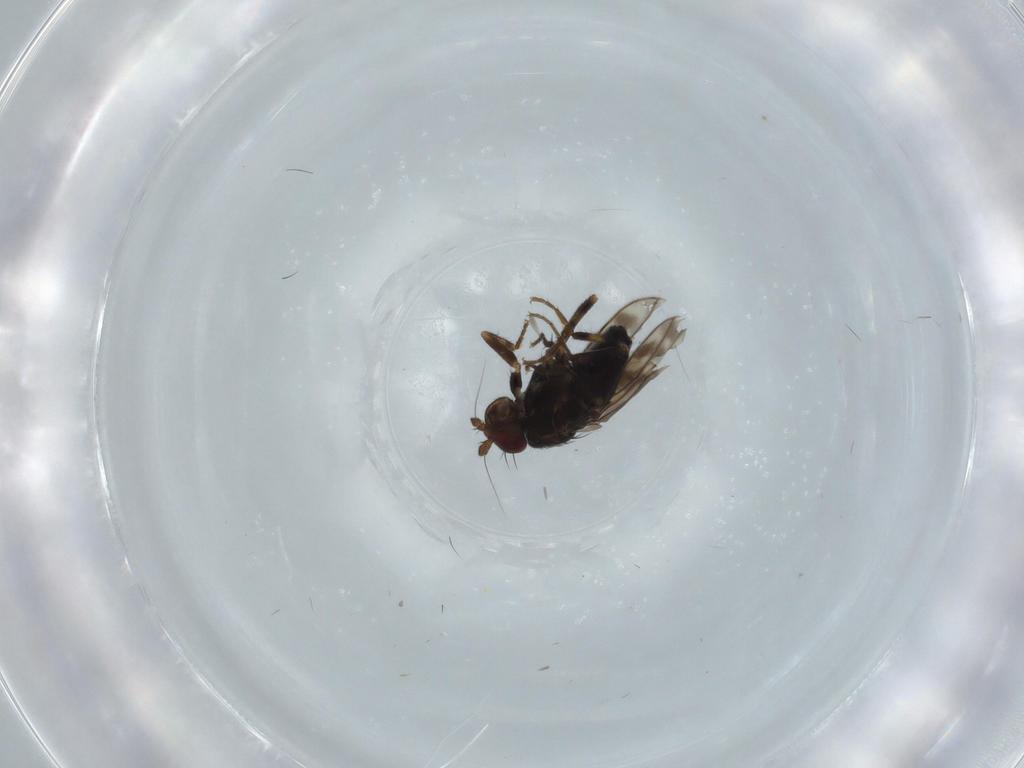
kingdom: Animalia
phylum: Arthropoda
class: Insecta
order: Diptera
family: Sphaeroceridae
